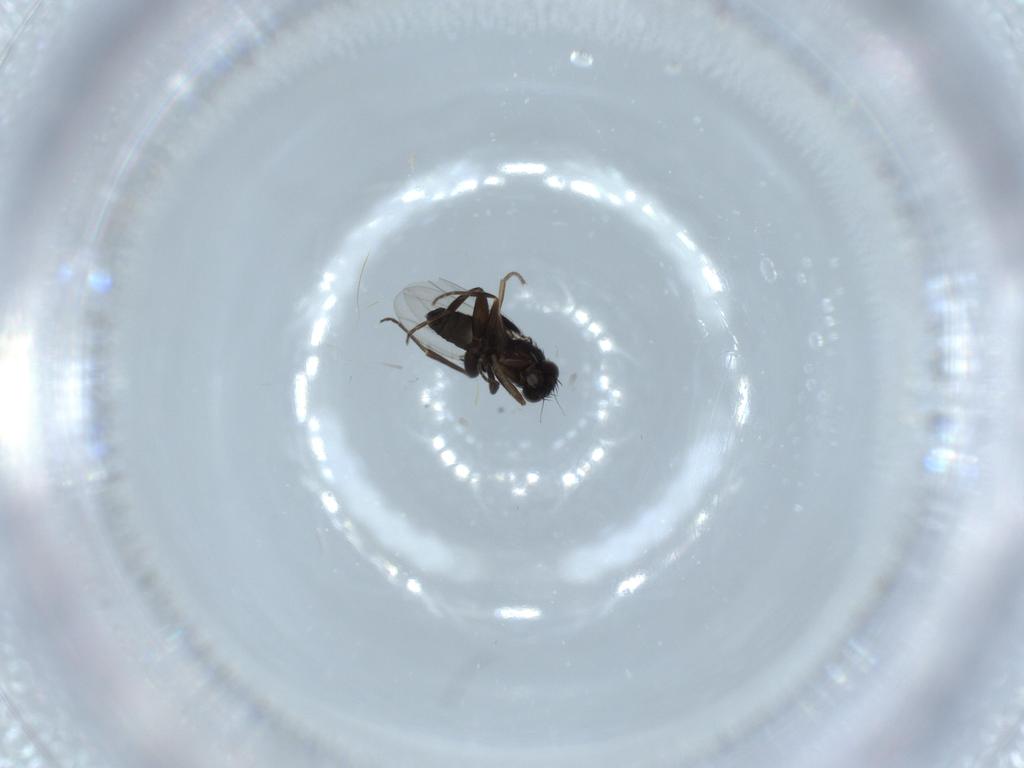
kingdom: Animalia
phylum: Arthropoda
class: Insecta
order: Diptera
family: Phoridae
